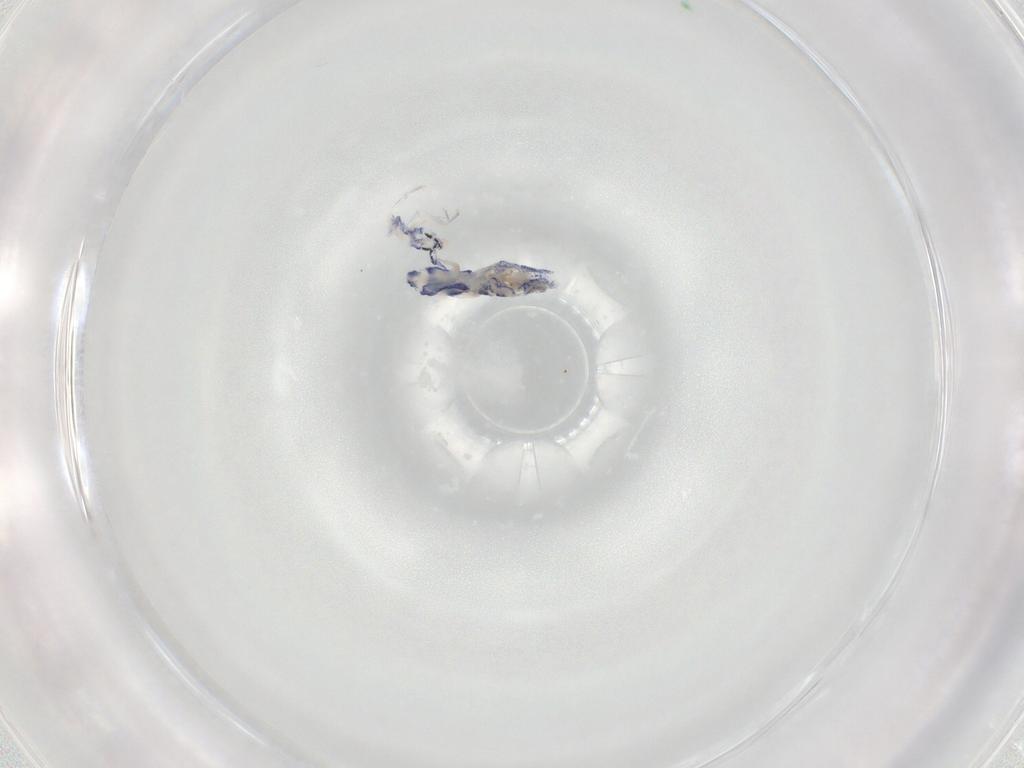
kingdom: Animalia
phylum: Arthropoda
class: Collembola
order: Entomobryomorpha
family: Entomobryidae
